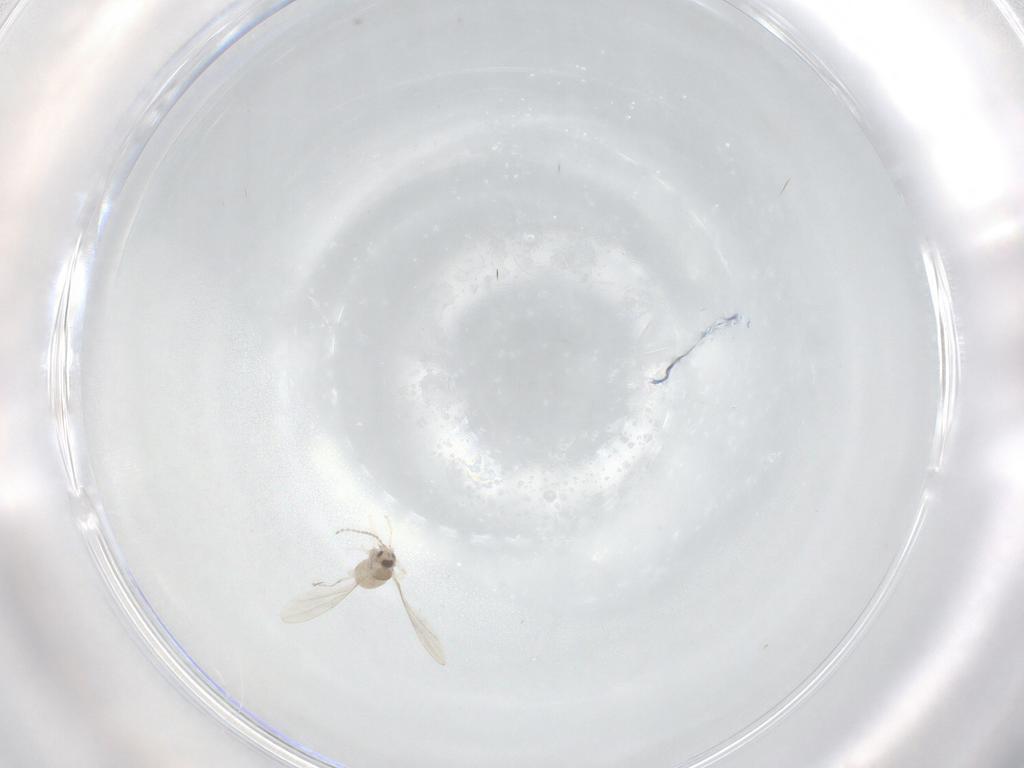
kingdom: Animalia
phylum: Arthropoda
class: Insecta
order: Diptera
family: Cecidomyiidae
